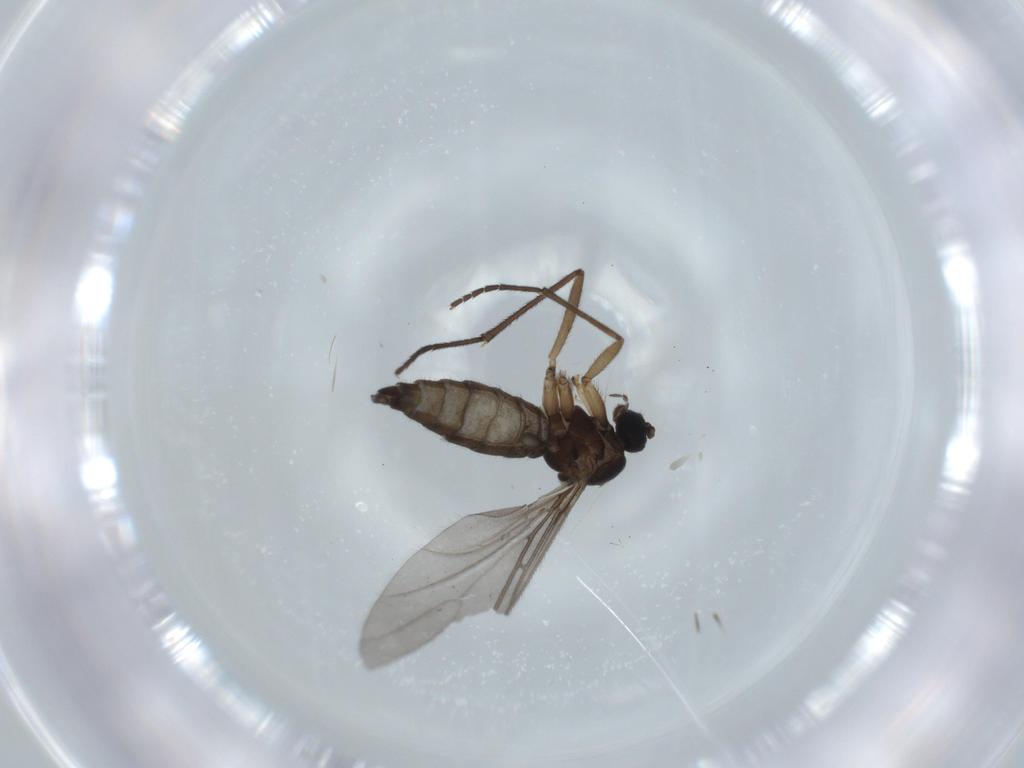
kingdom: Animalia
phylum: Arthropoda
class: Insecta
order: Diptera
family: Sciaridae
